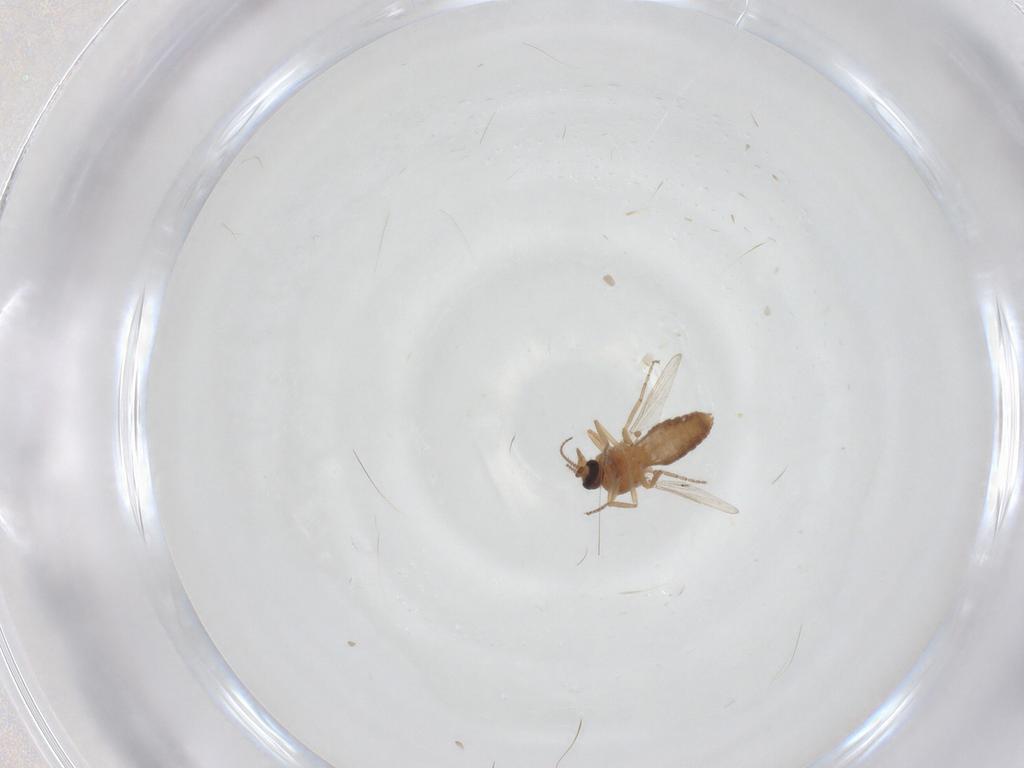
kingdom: Animalia
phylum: Arthropoda
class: Insecta
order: Diptera
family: Ceratopogonidae
